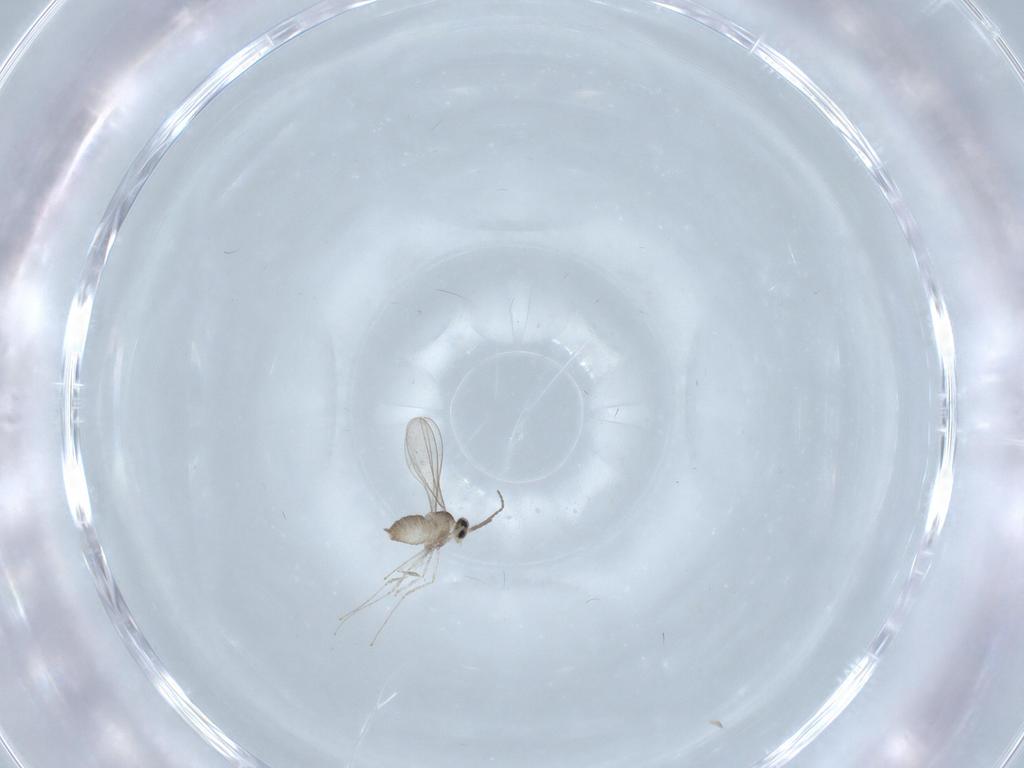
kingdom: Animalia
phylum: Arthropoda
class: Insecta
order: Diptera
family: Cecidomyiidae
